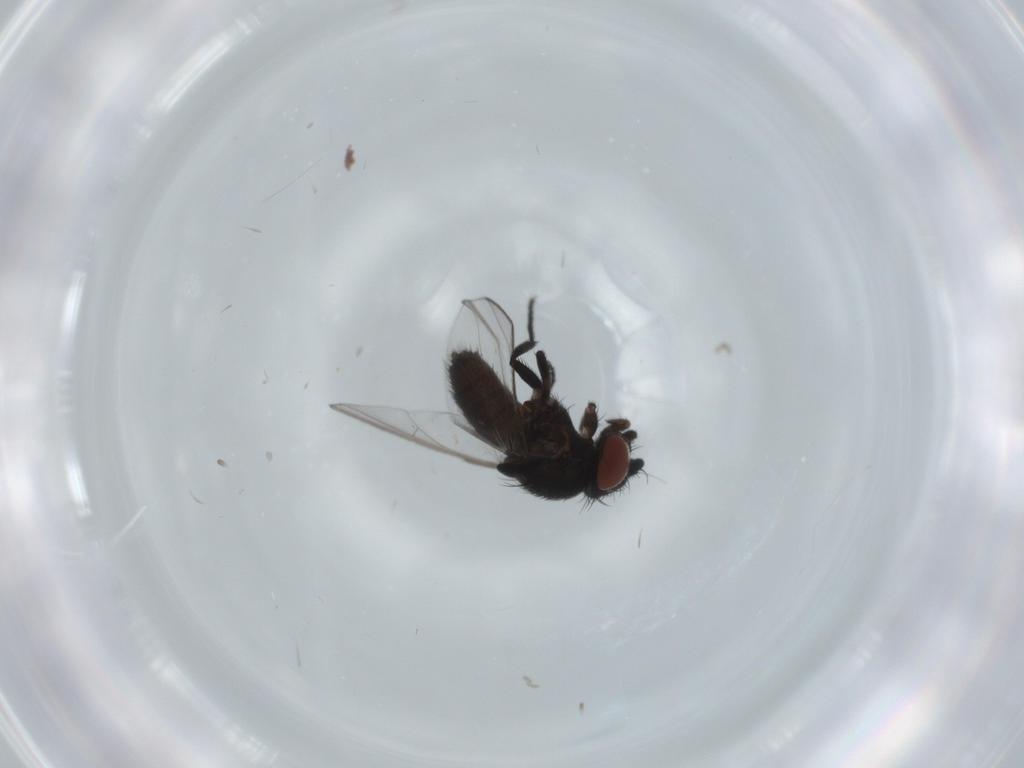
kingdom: Animalia
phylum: Arthropoda
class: Insecta
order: Diptera
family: Milichiidae
